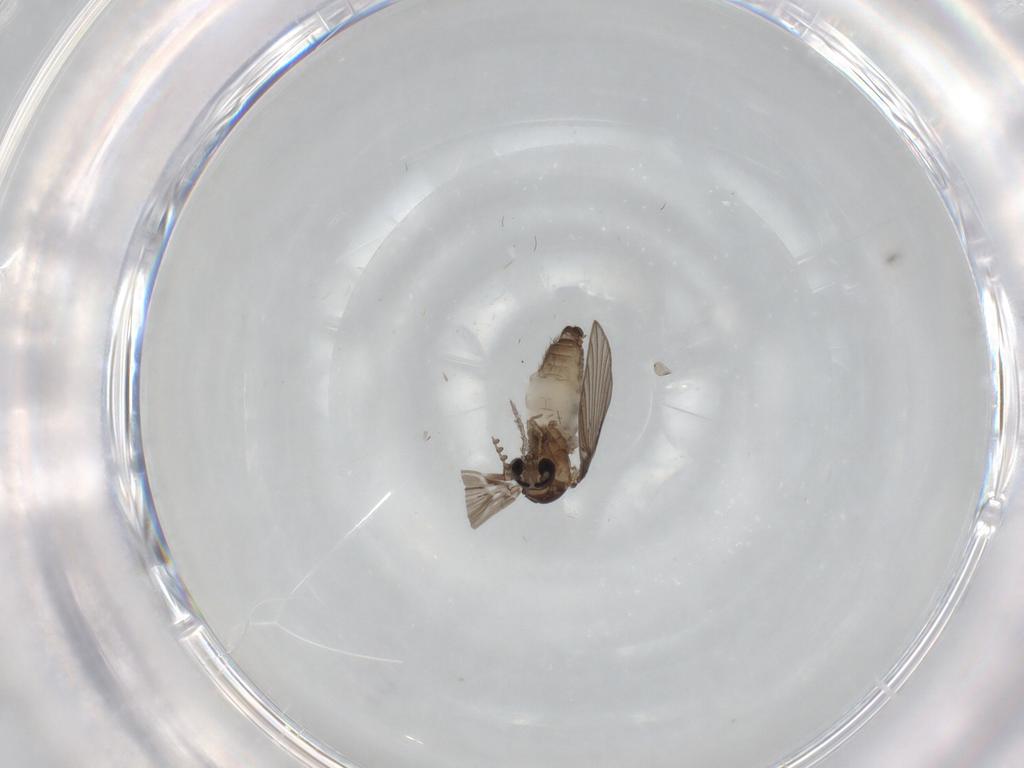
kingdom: Animalia
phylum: Arthropoda
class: Insecta
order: Diptera
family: Psychodidae
